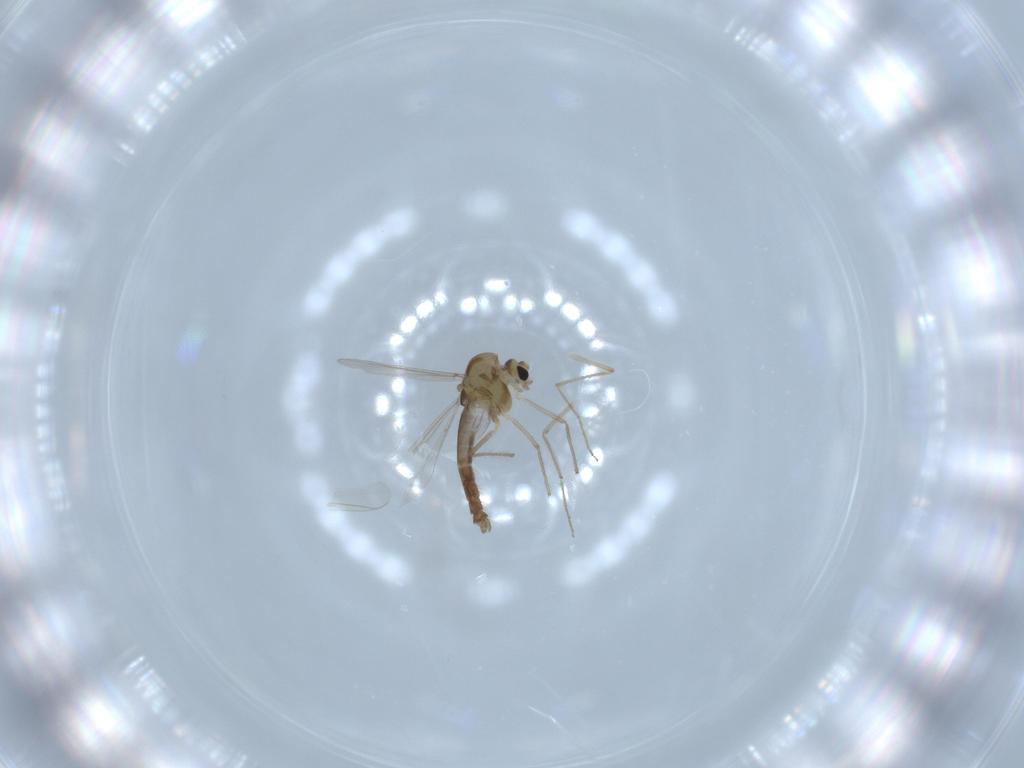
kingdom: Animalia
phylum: Arthropoda
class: Insecta
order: Diptera
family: Chironomidae
